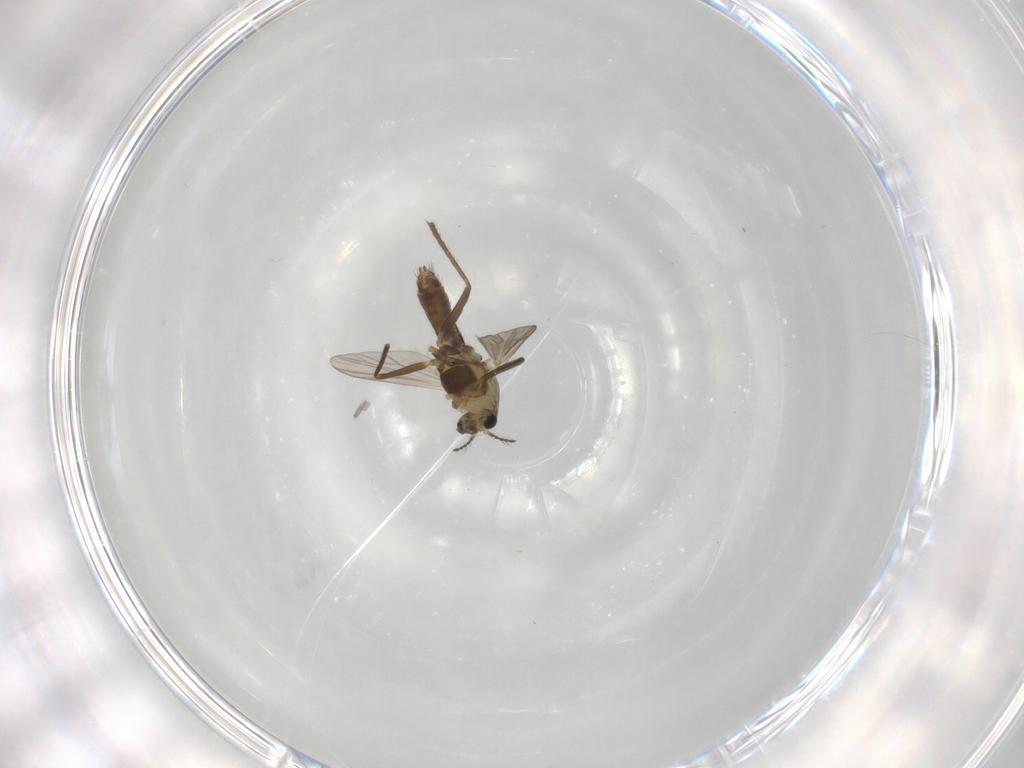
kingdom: Animalia
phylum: Arthropoda
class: Insecta
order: Diptera
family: Chironomidae
